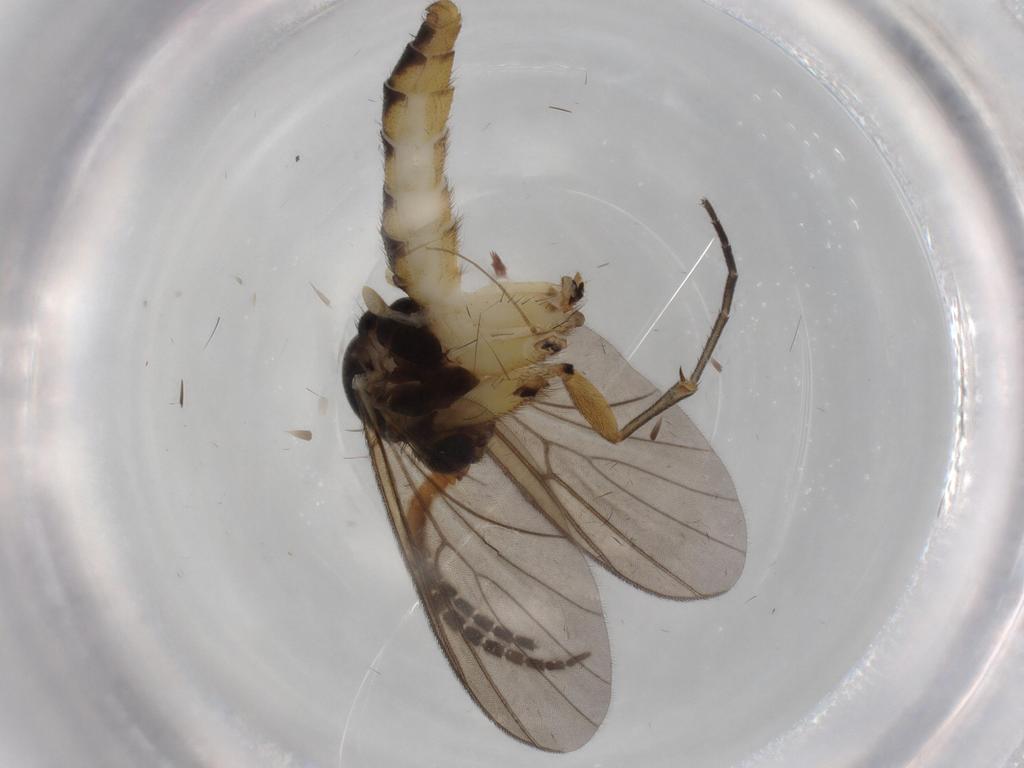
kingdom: Animalia
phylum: Arthropoda
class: Insecta
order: Diptera
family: Phoridae
